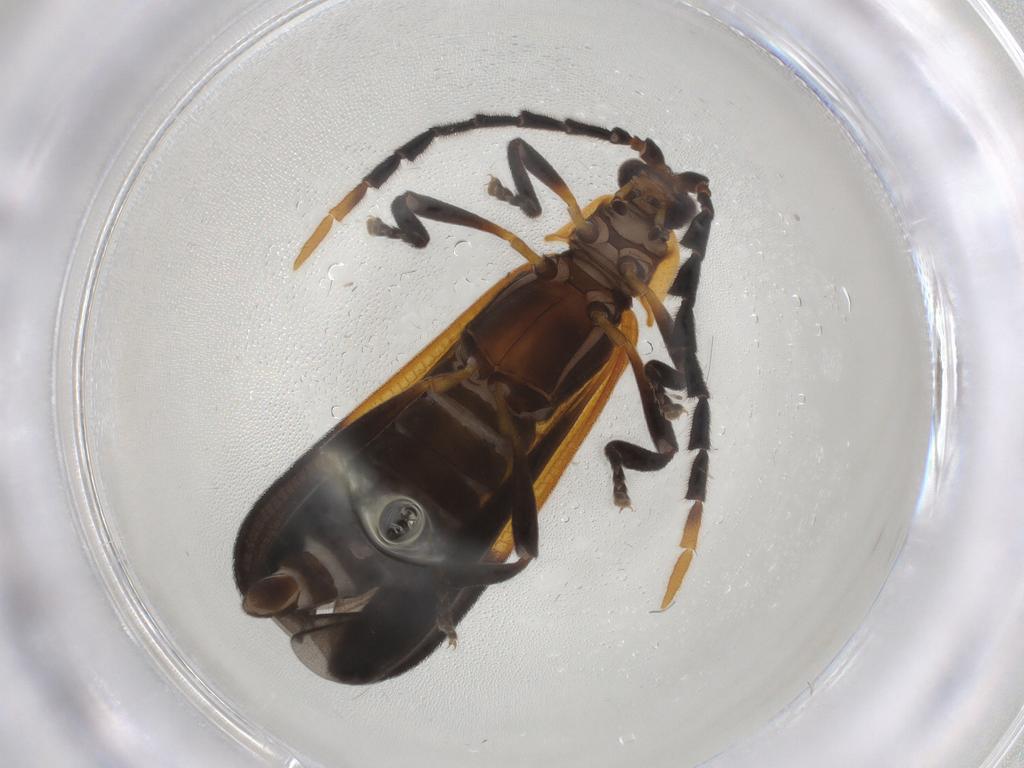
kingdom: Animalia
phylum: Arthropoda
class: Insecta
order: Coleoptera
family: Lycidae
